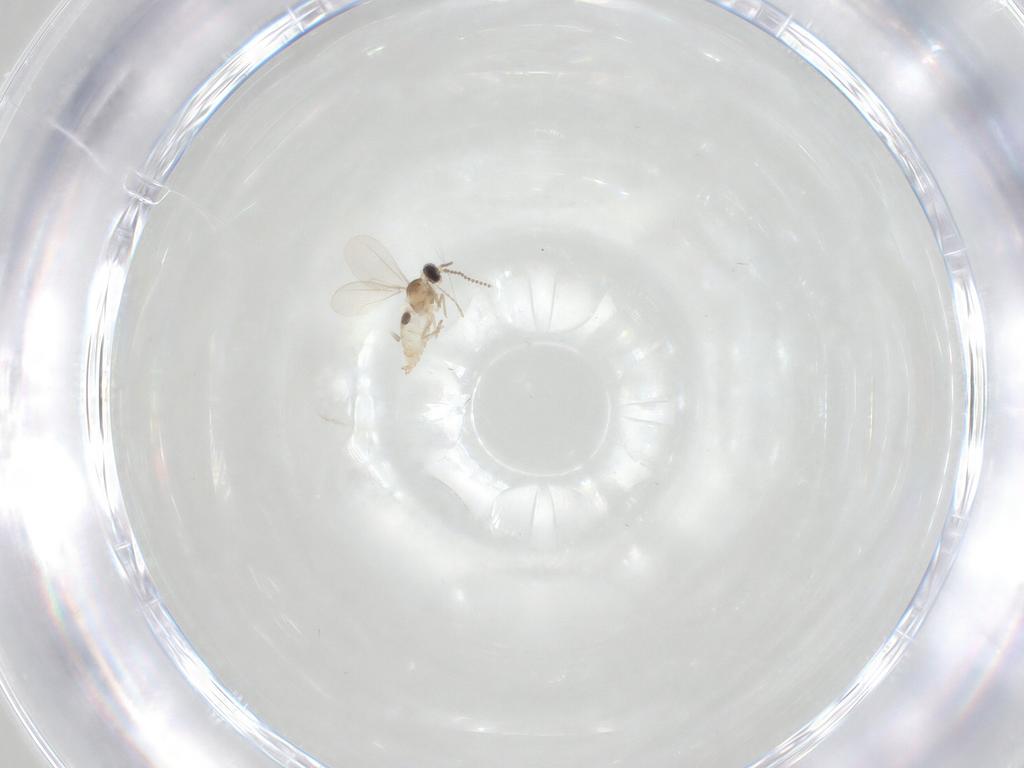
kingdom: Animalia
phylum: Arthropoda
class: Insecta
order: Diptera
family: Cecidomyiidae
